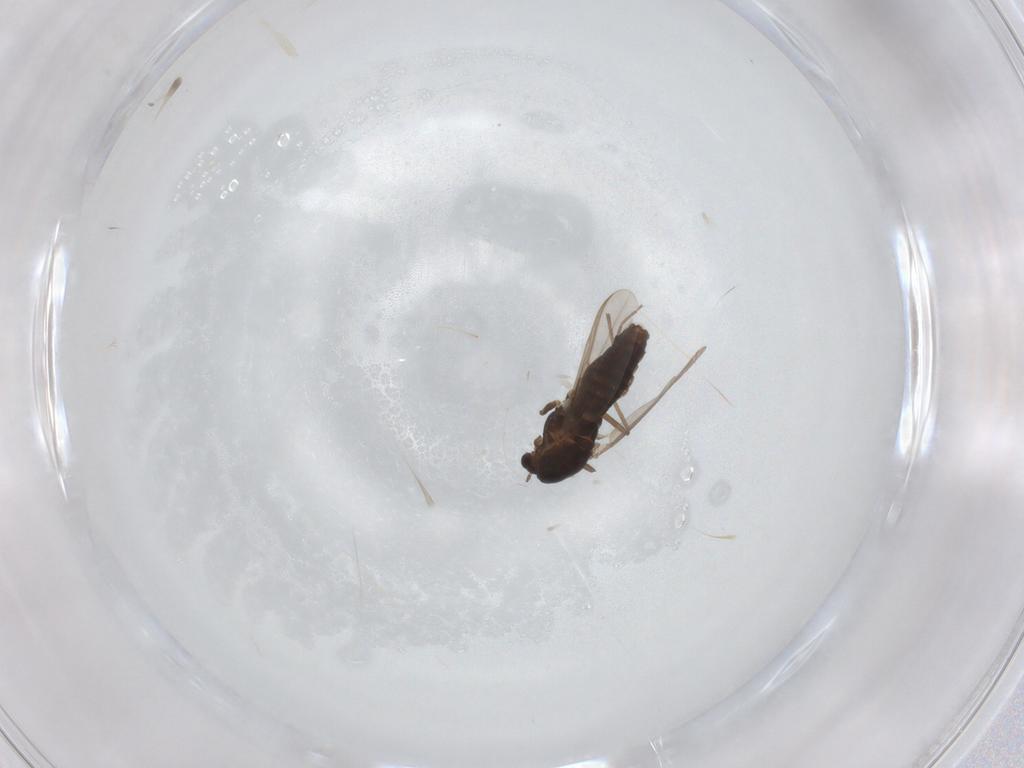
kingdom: Animalia
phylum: Arthropoda
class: Insecta
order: Diptera
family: Chironomidae
